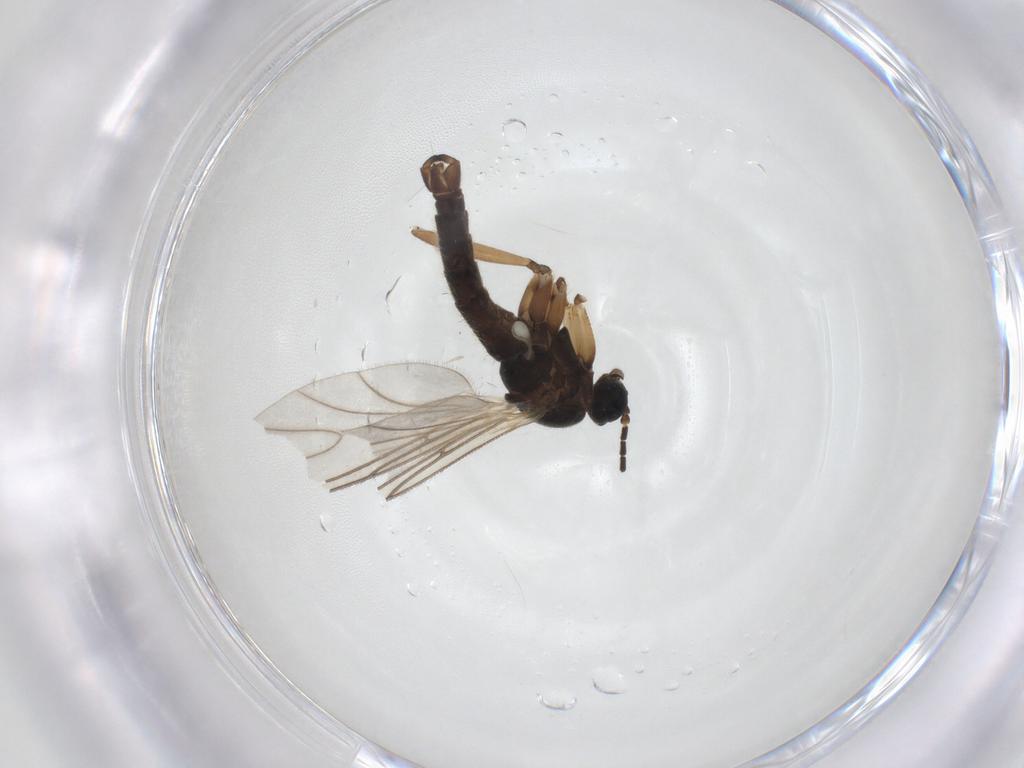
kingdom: Animalia
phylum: Arthropoda
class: Insecta
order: Diptera
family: Sciaridae
